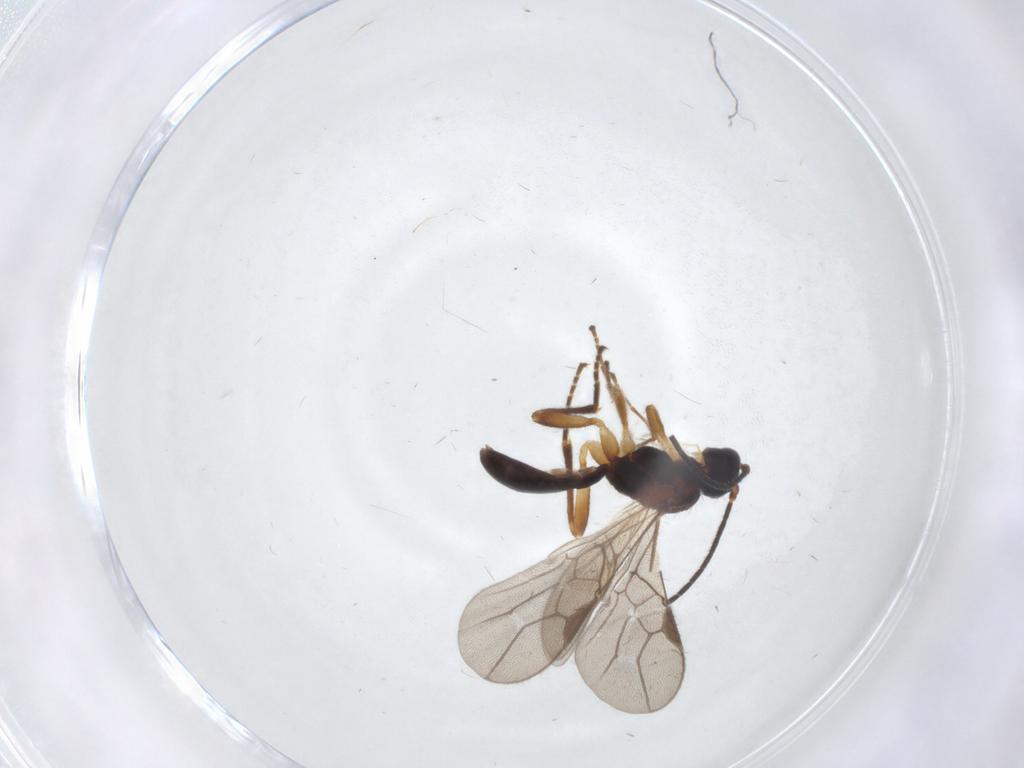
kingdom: Animalia
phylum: Arthropoda
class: Insecta
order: Hymenoptera
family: Braconidae
